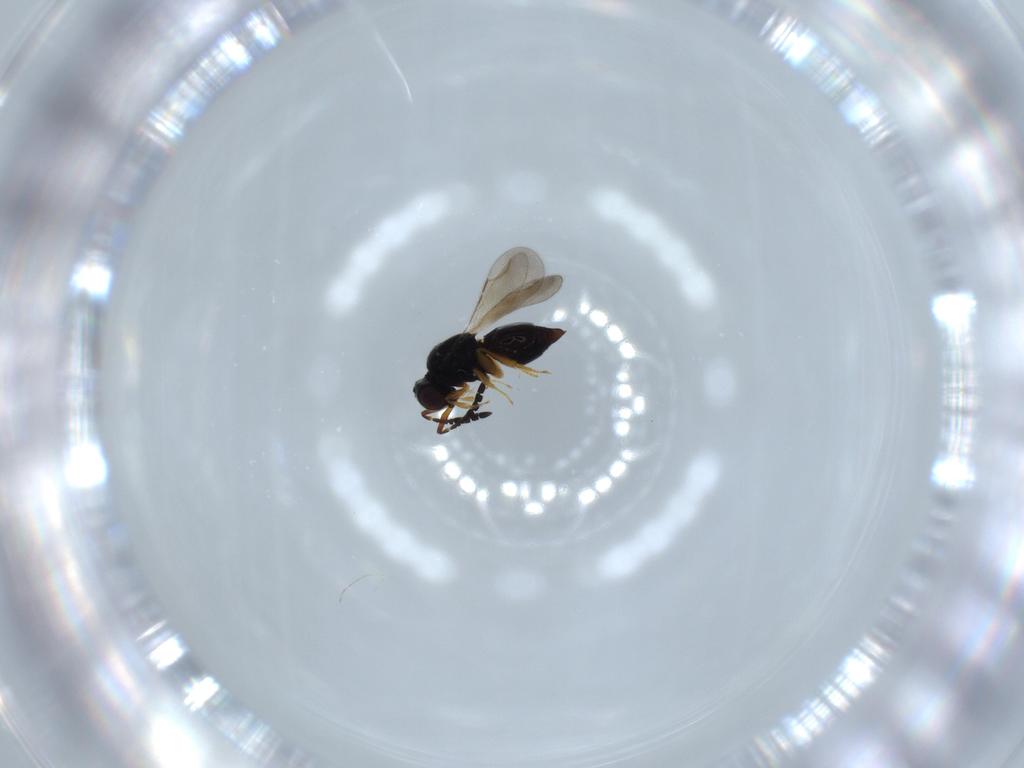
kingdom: Animalia
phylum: Arthropoda
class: Insecta
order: Hymenoptera
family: Ceraphronidae
